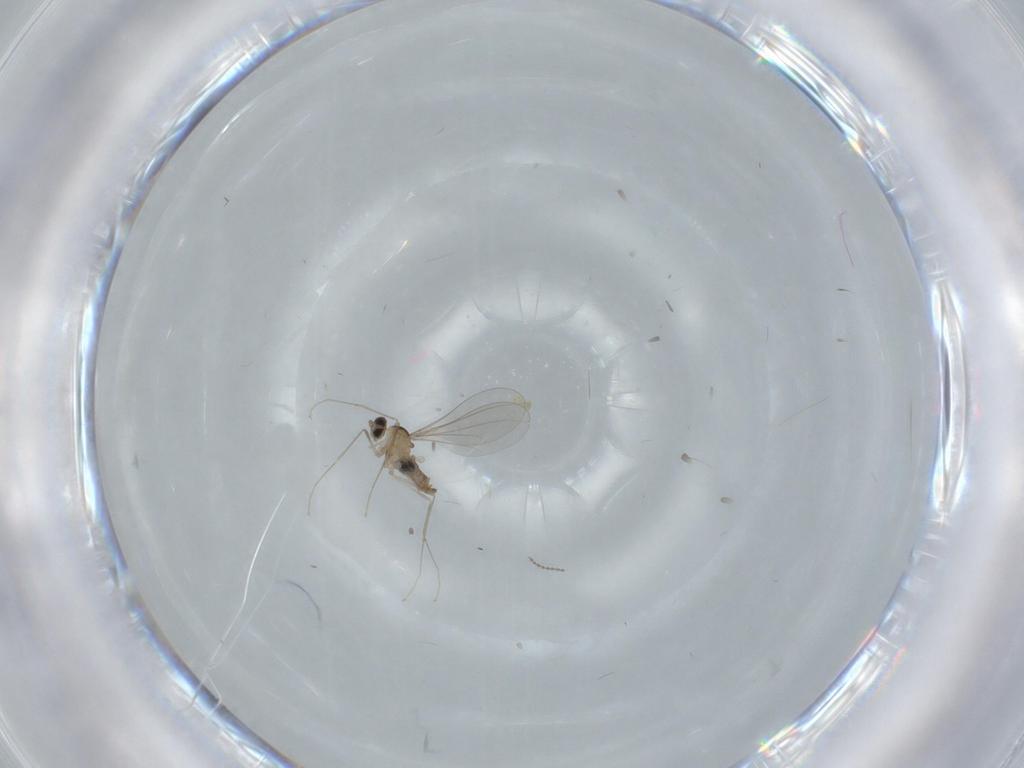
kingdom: Animalia
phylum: Arthropoda
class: Insecta
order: Diptera
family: Cecidomyiidae
